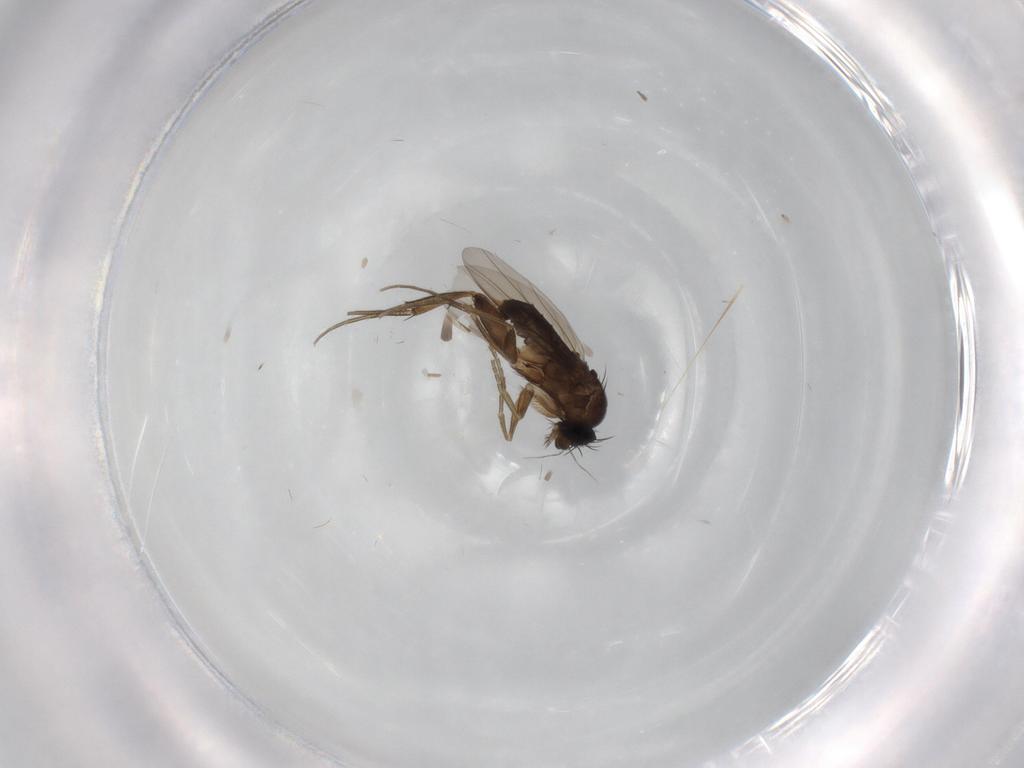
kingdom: Animalia
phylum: Arthropoda
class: Insecta
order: Diptera
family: Phoridae
